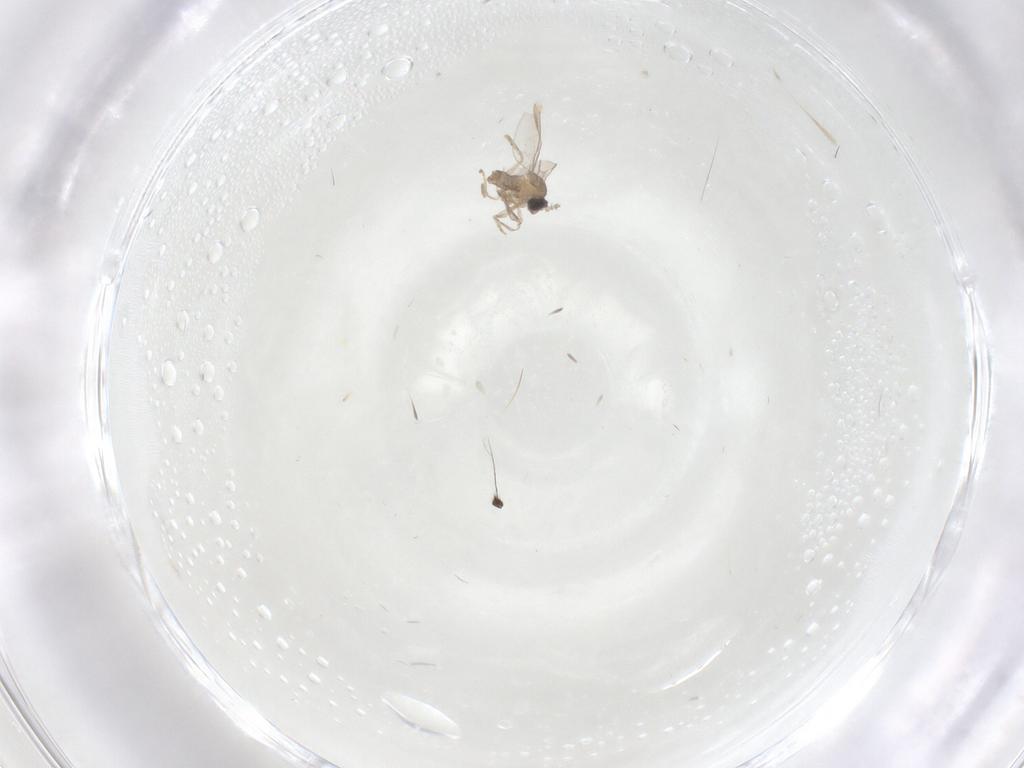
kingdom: Animalia
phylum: Arthropoda
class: Insecta
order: Diptera
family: Cecidomyiidae
